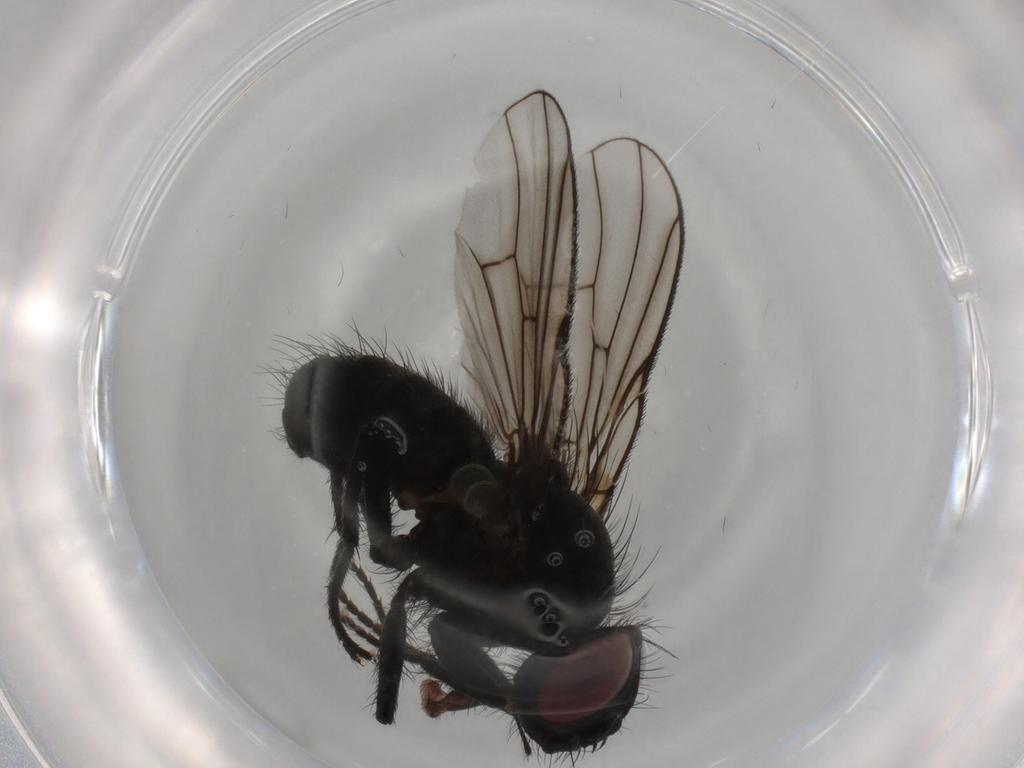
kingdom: Animalia
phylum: Arthropoda
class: Insecta
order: Diptera
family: Muscidae
